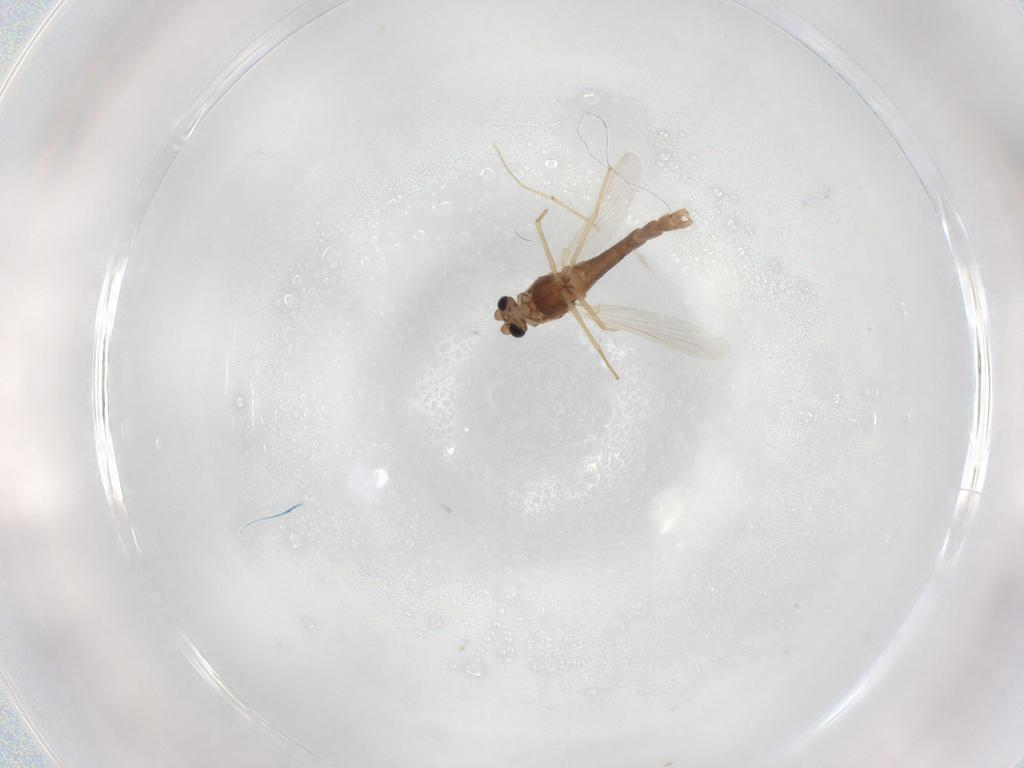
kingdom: Animalia
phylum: Arthropoda
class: Insecta
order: Diptera
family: Chironomidae
